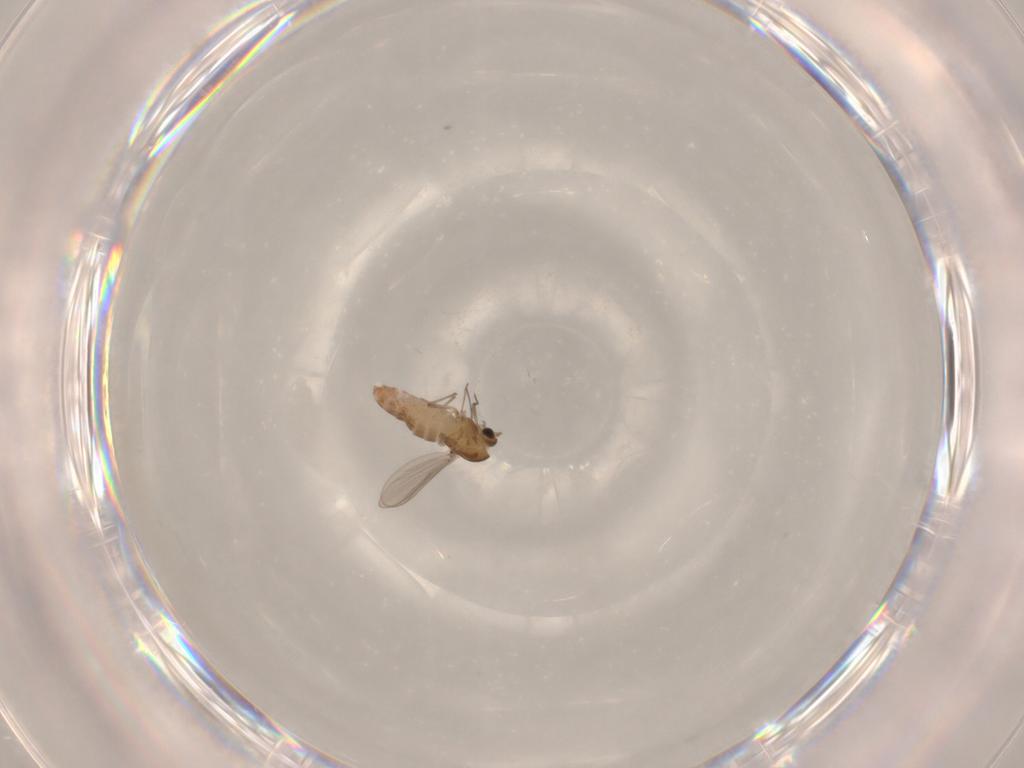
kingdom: Animalia
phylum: Arthropoda
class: Insecta
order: Diptera
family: Chironomidae
